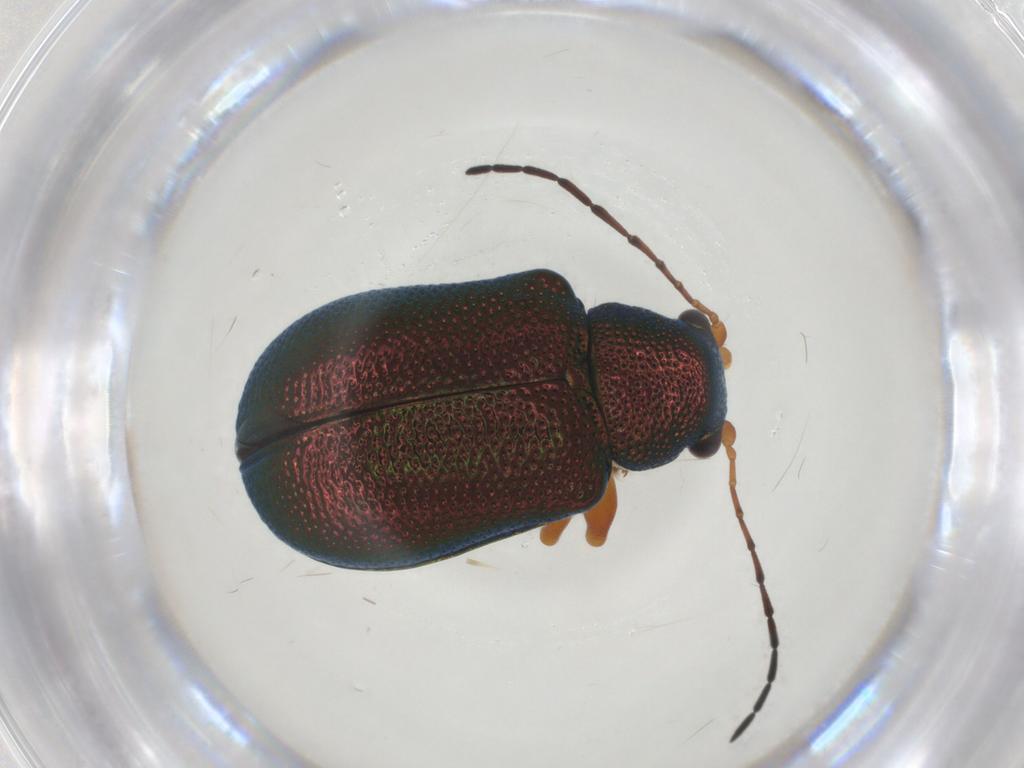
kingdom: Animalia
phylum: Arthropoda
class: Insecta
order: Coleoptera
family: Chrysomelidae
